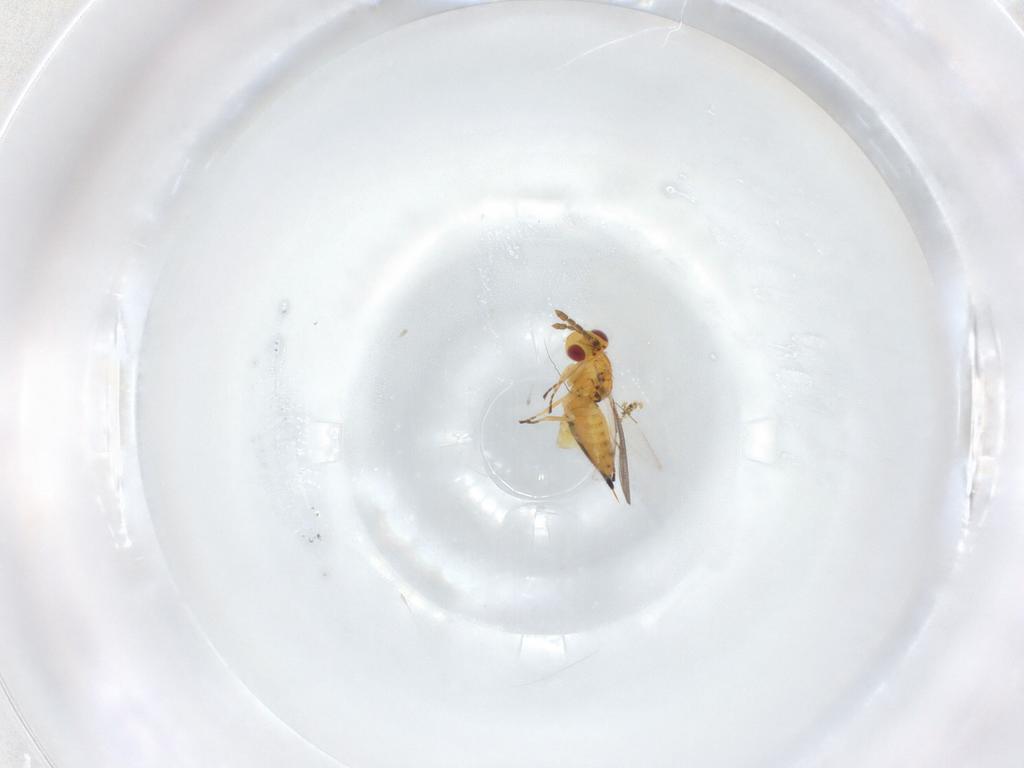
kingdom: Animalia
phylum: Arthropoda
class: Insecta
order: Hymenoptera
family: Eulophidae
